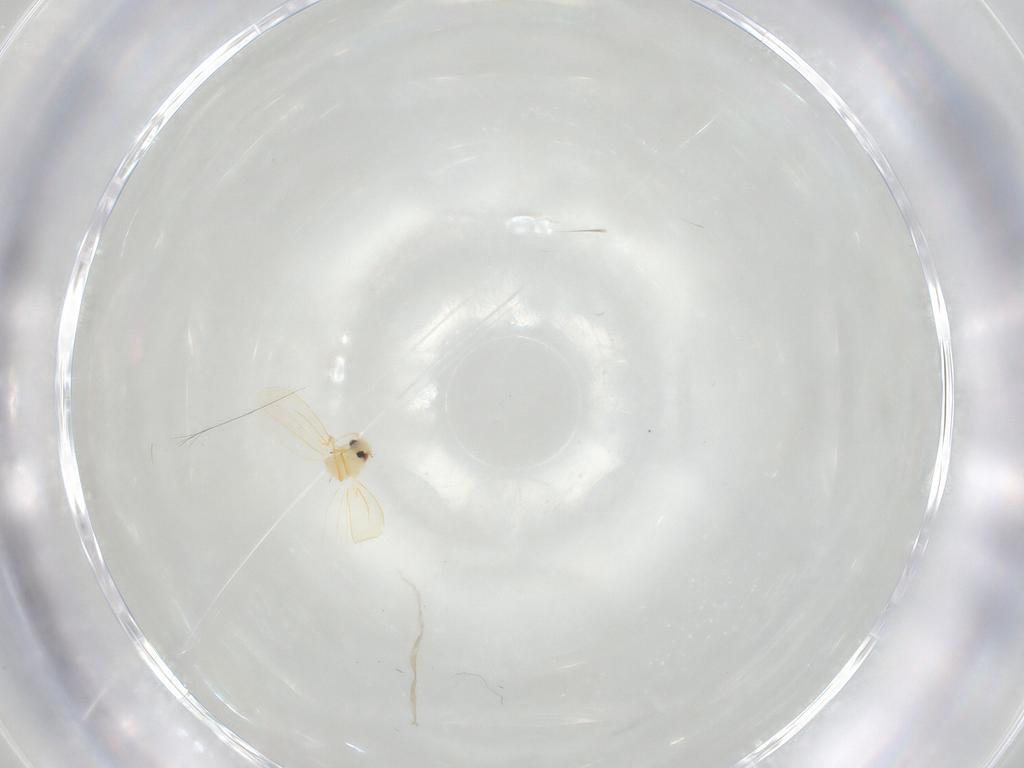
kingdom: Animalia
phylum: Arthropoda
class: Insecta
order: Hemiptera
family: Aleyrodidae
